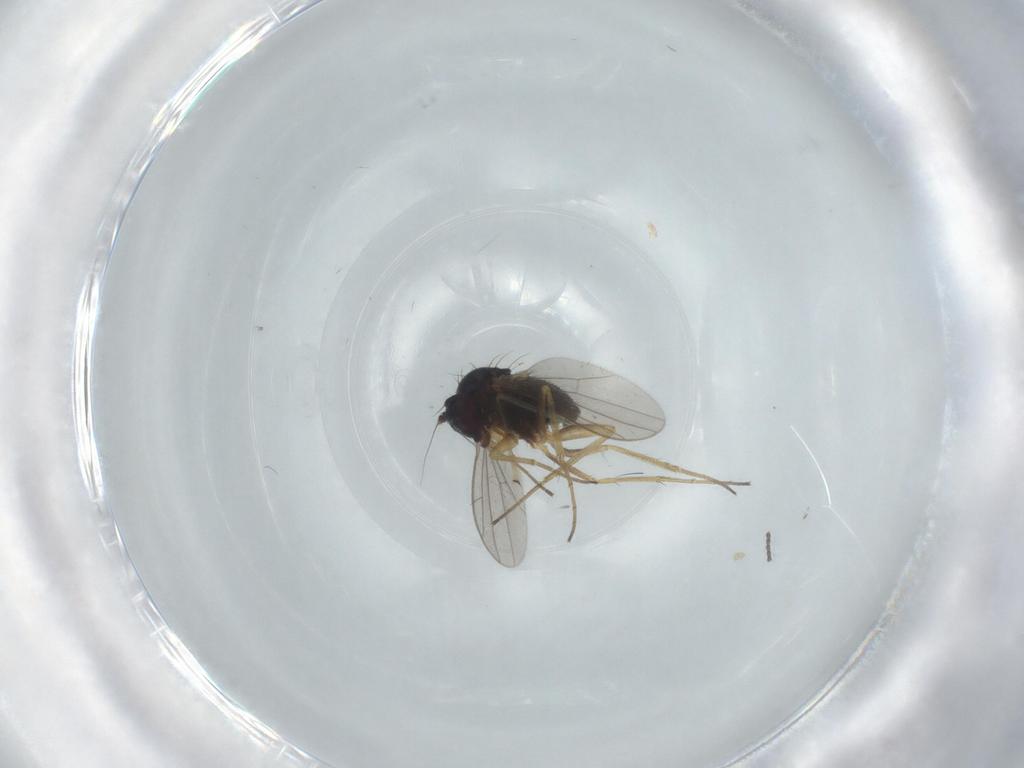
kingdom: Animalia
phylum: Arthropoda
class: Insecta
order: Diptera
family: Dolichopodidae
